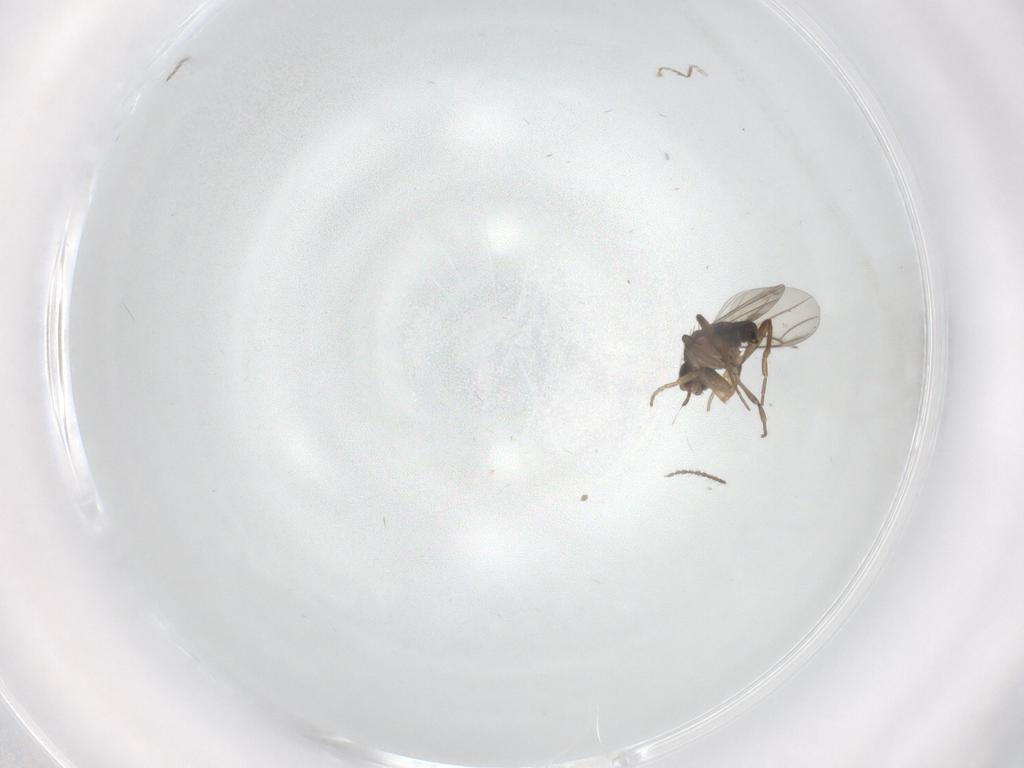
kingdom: Animalia
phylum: Arthropoda
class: Insecta
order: Diptera
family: Phoridae
